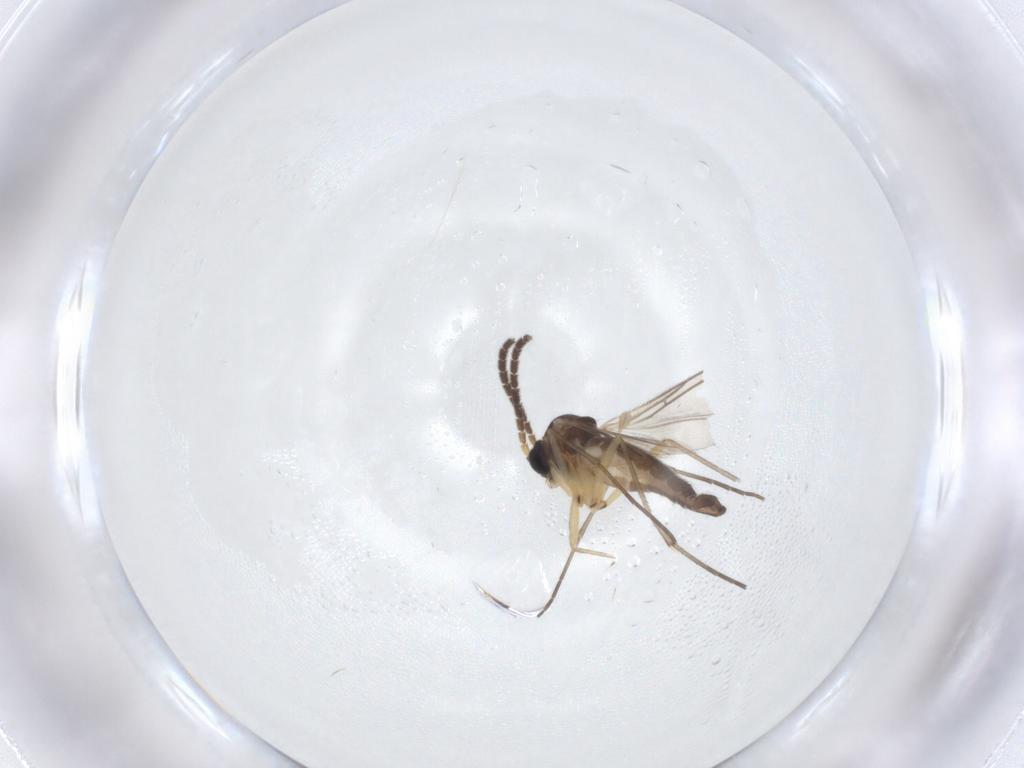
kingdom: Animalia
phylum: Arthropoda
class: Insecta
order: Diptera
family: Sciaridae
